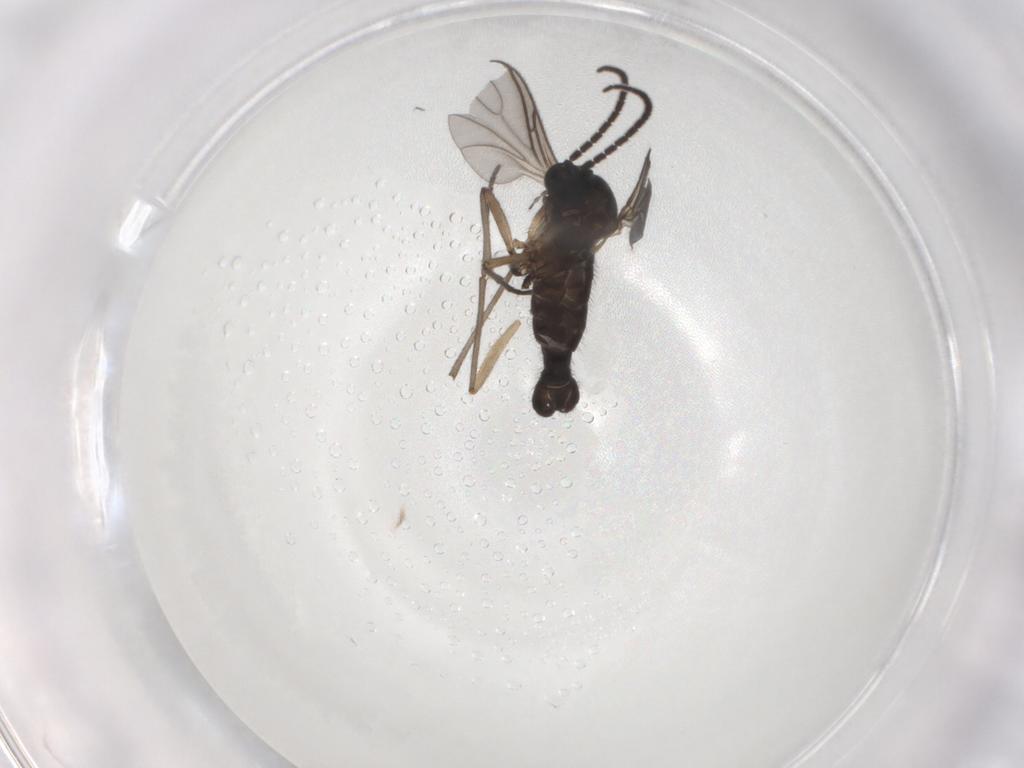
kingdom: Animalia
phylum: Arthropoda
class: Insecta
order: Diptera
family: Sciaridae
